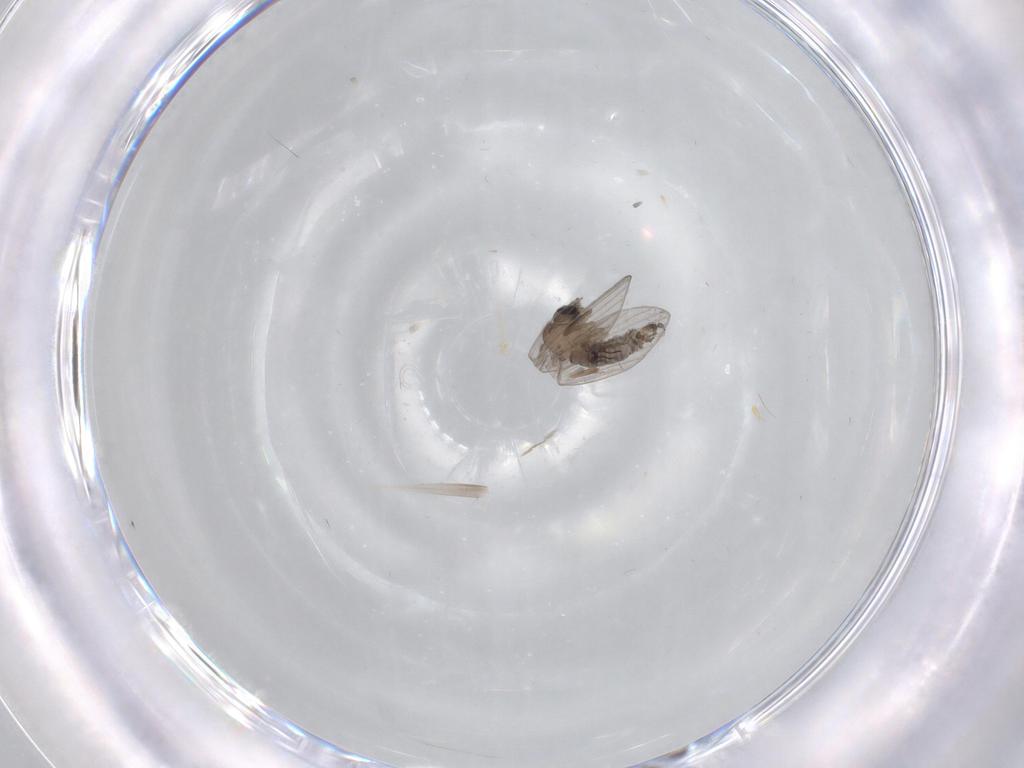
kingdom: Animalia
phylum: Arthropoda
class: Insecta
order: Diptera
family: Psychodidae
